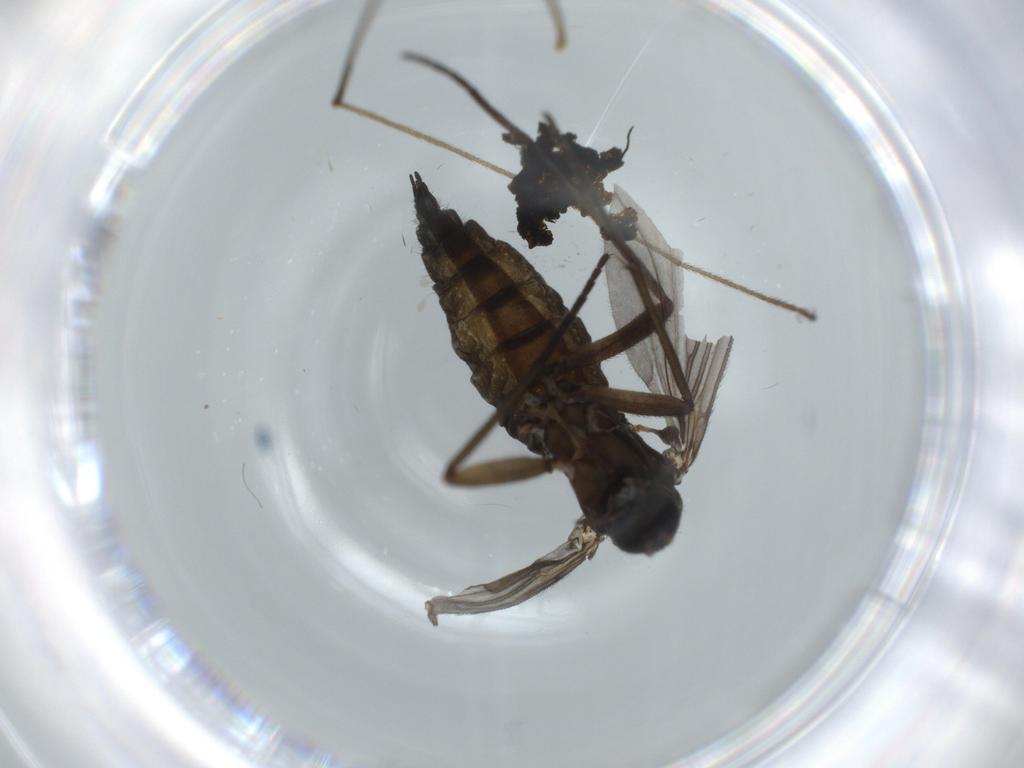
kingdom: Animalia
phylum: Arthropoda
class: Insecta
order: Diptera
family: Sciaridae
